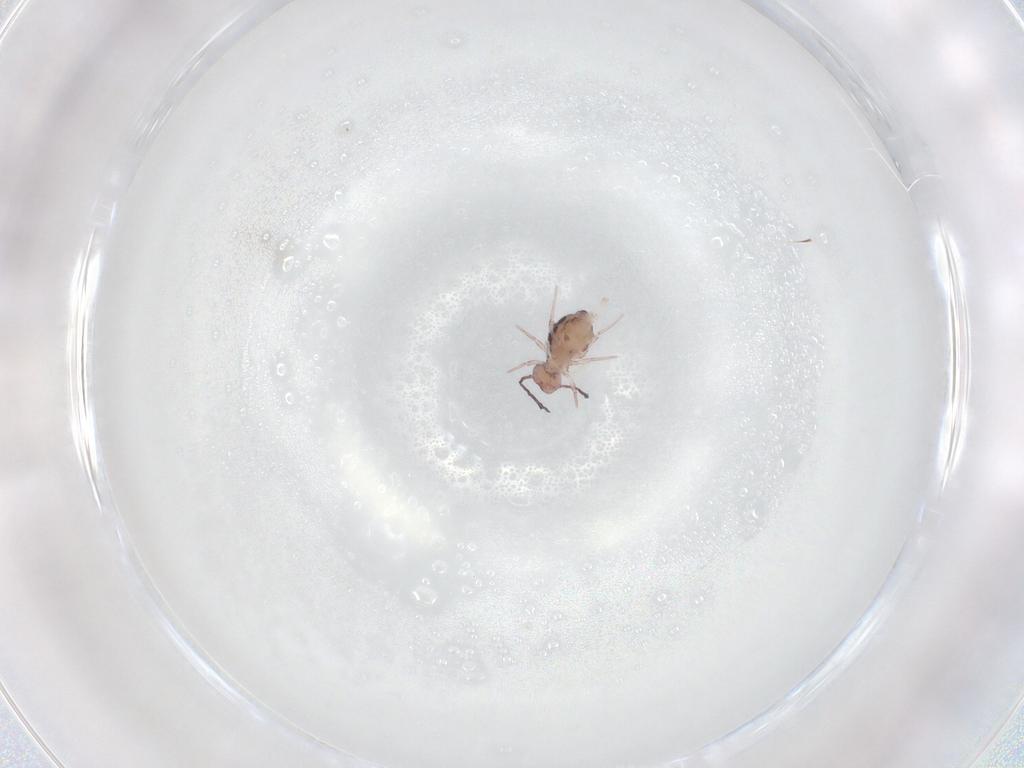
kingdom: Animalia
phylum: Arthropoda
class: Collembola
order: Symphypleona
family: Dicyrtomidae
